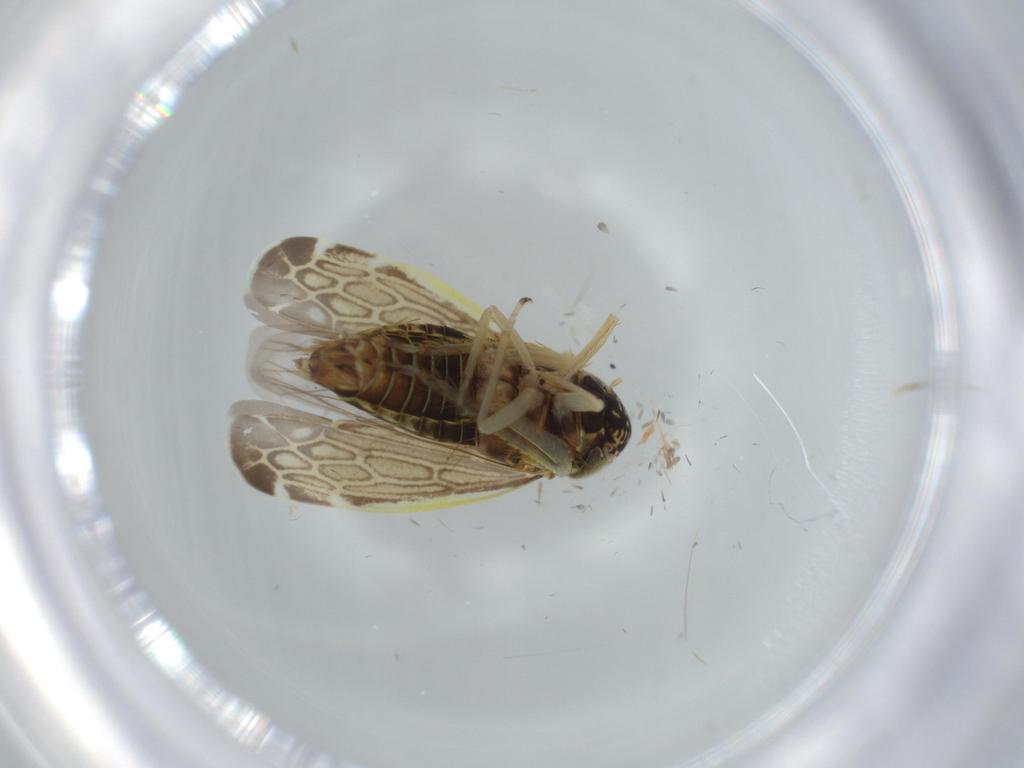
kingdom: Animalia
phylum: Arthropoda
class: Insecta
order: Hemiptera
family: Cicadellidae
